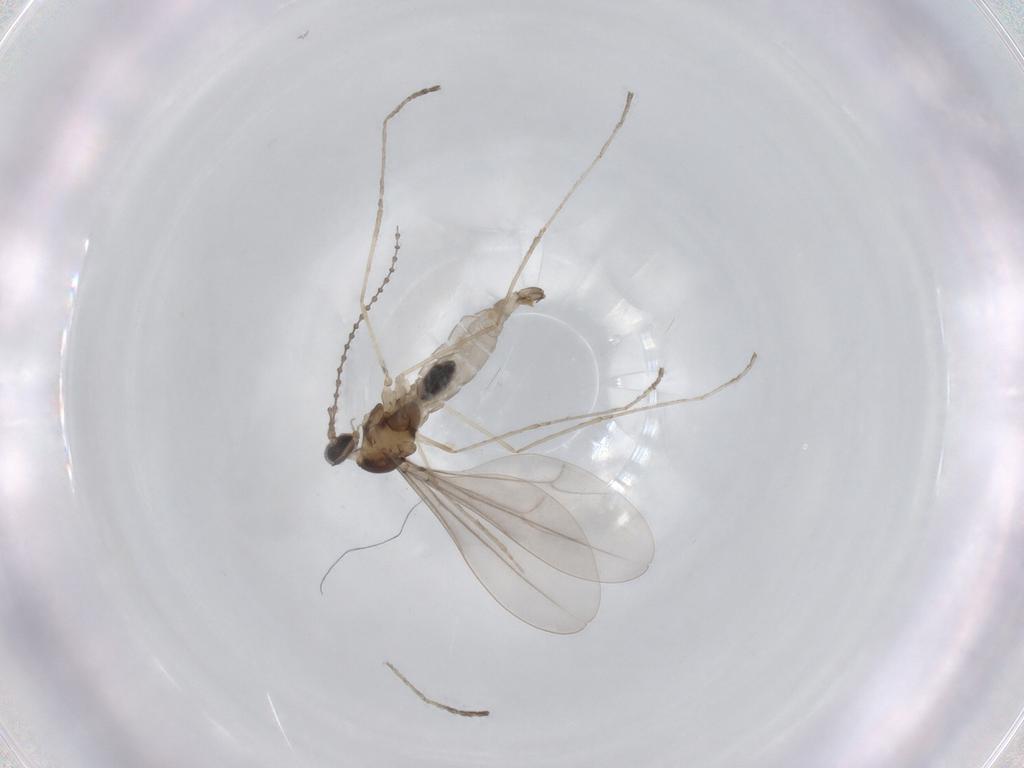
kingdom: Animalia
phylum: Arthropoda
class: Insecta
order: Diptera
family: Cecidomyiidae
